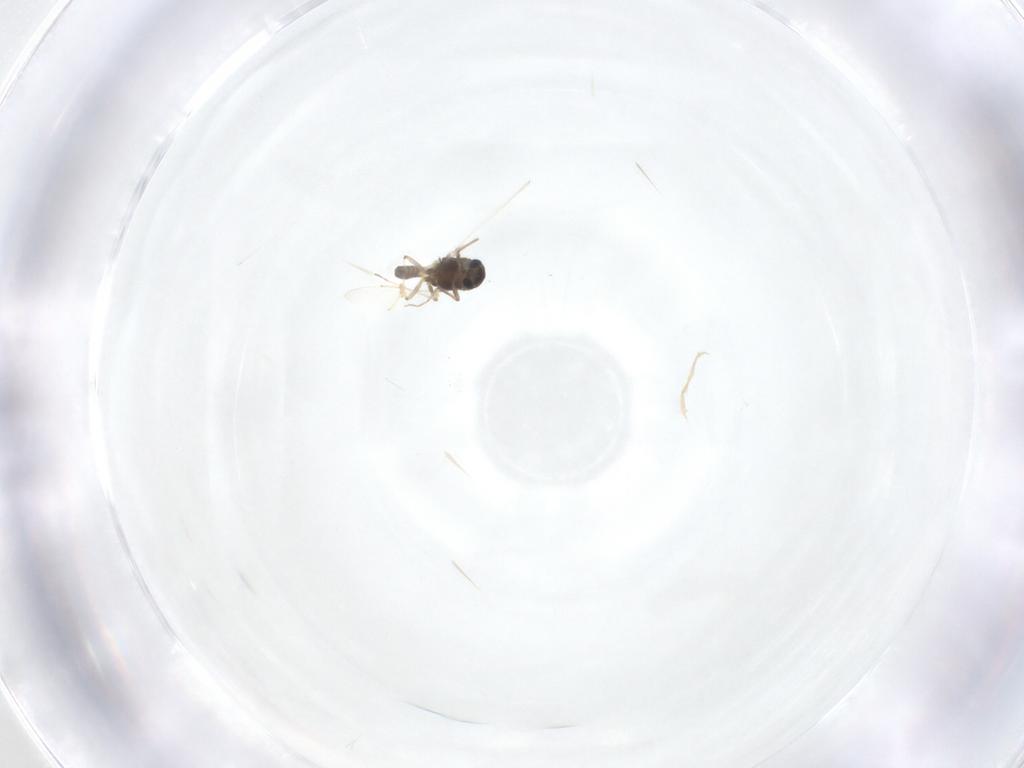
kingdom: Animalia
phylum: Arthropoda
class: Insecta
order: Diptera
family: Chironomidae
